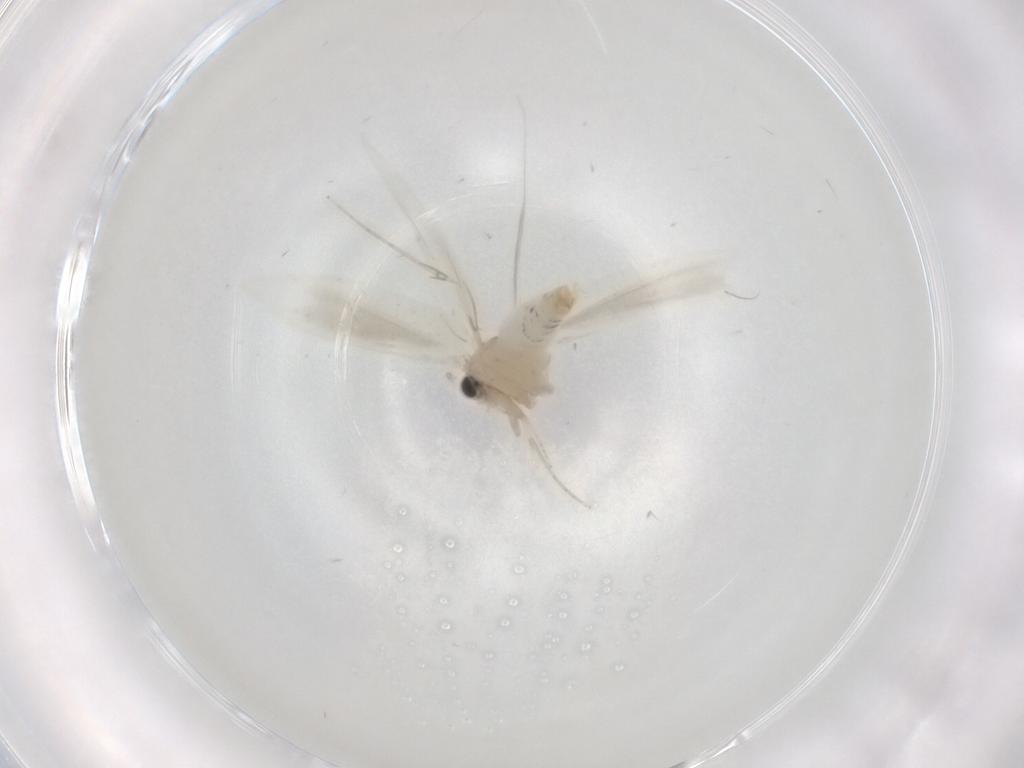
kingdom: Animalia
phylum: Arthropoda
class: Insecta
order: Lepidoptera
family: Tineidae
